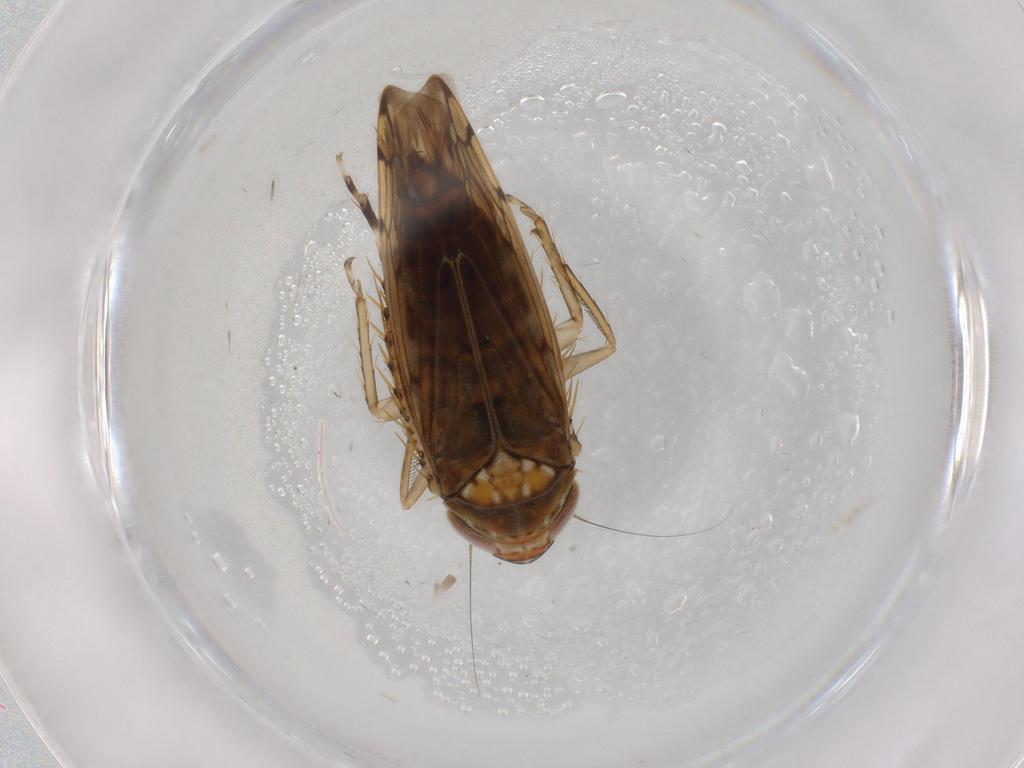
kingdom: Animalia
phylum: Arthropoda
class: Insecta
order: Hemiptera
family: Cicadellidae
